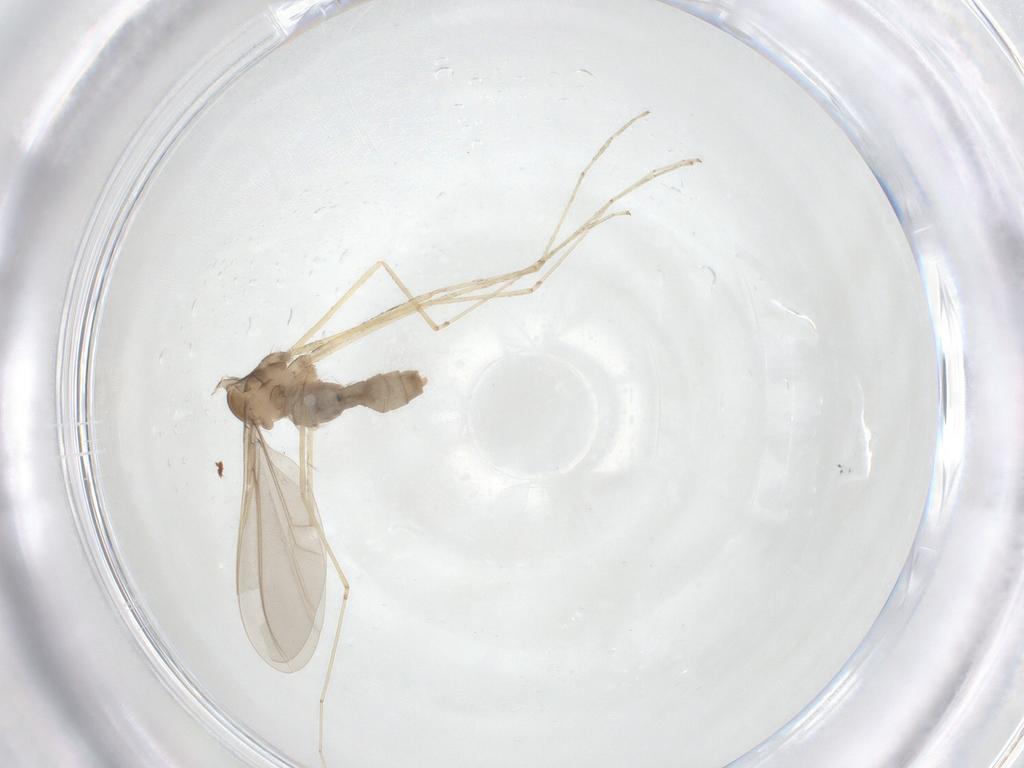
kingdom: Animalia
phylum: Arthropoda
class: Insecta
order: Diptera
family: Cecidomyiidae
